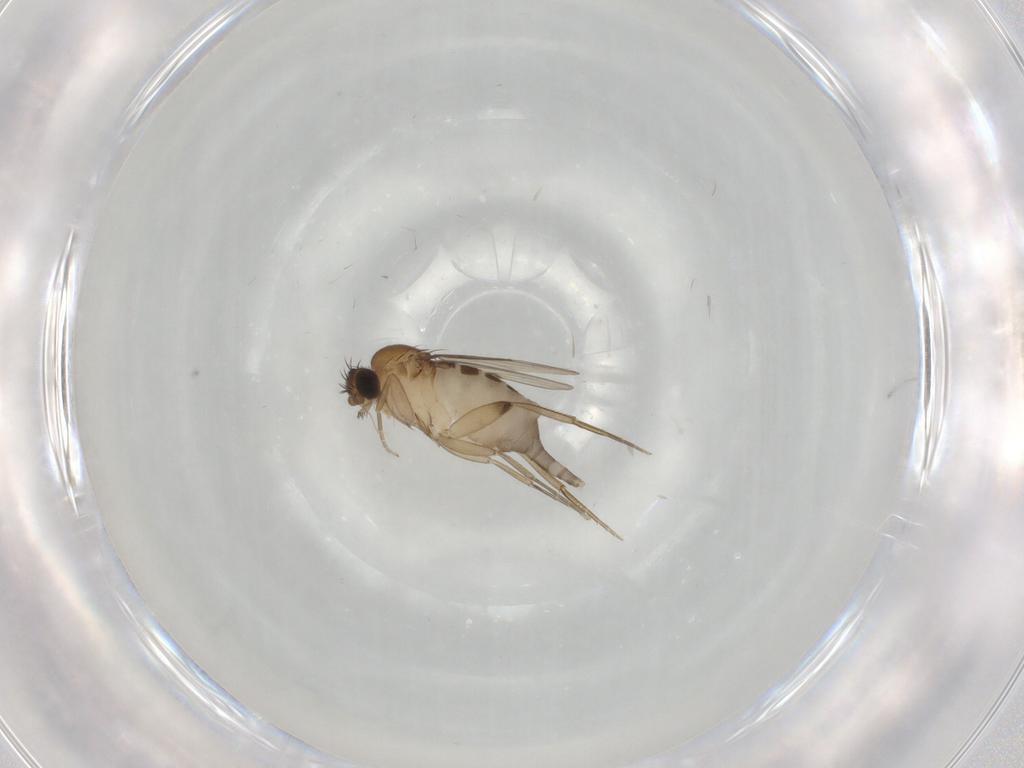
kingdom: Animalia
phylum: Arthropoda
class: Insecta
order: Diptera
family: Phoridae
